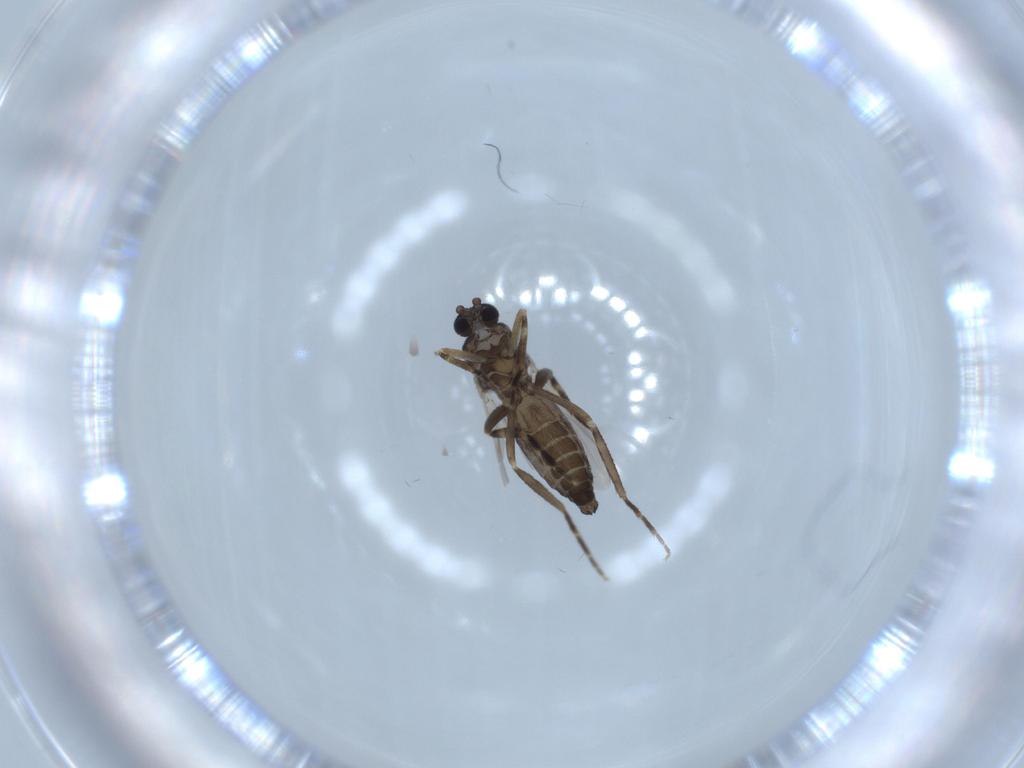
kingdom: Animalia
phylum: Arthropoda
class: Insecta
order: Diptera
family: Ceratopogonidae
